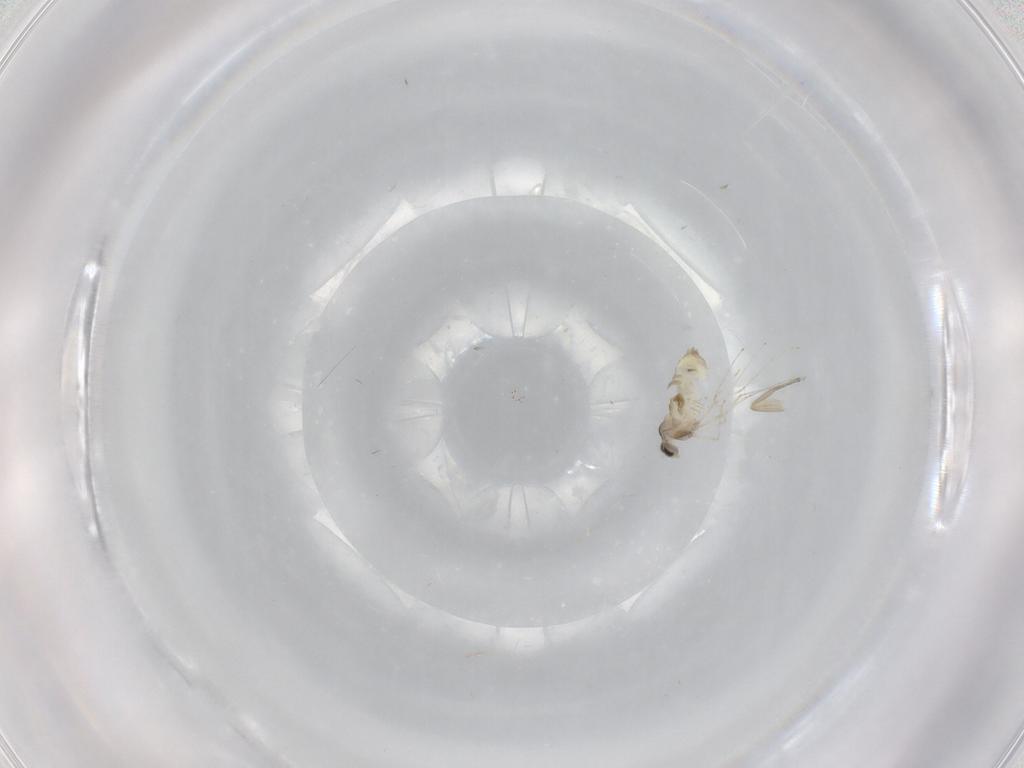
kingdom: Animalia
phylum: Arthropoda
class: Insecta
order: Diptera
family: Cecidomyiidae
